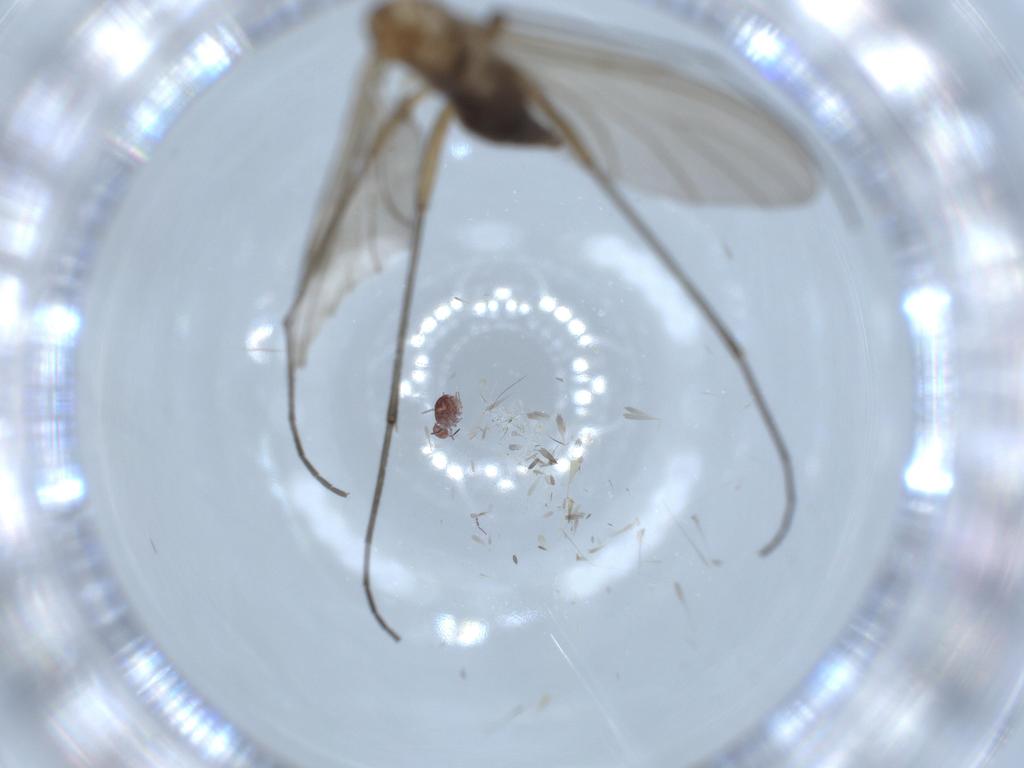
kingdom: Animalia
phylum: Arthropoda
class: Insecta
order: Diptera
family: Sciaridae
